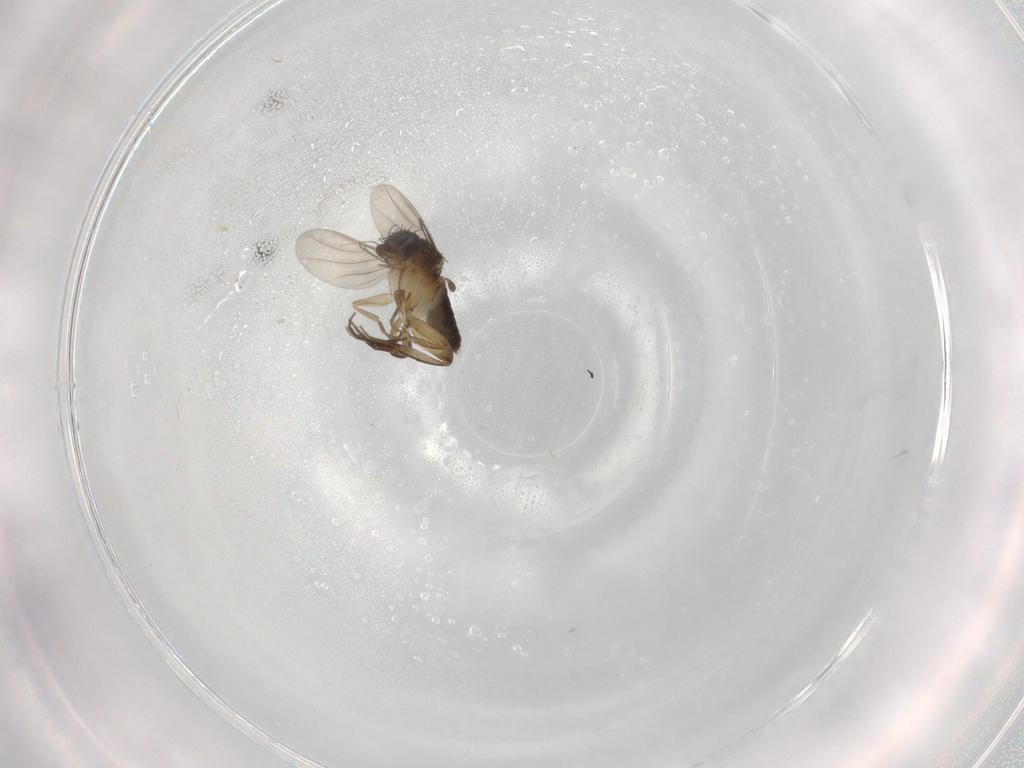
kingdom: Animalia
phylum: Arthropoda
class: Insecta
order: Diptera
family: Phoridae
